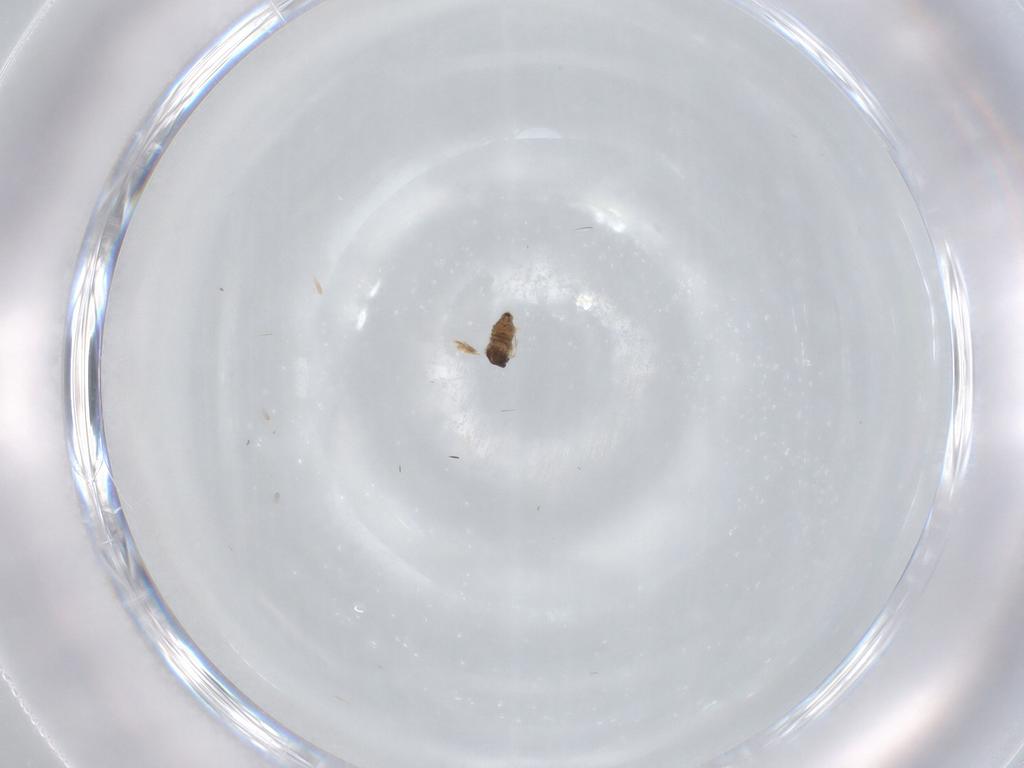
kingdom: Animalia
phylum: Arthropoda
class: Insecta
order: Diptera
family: Cecidomyiidae
